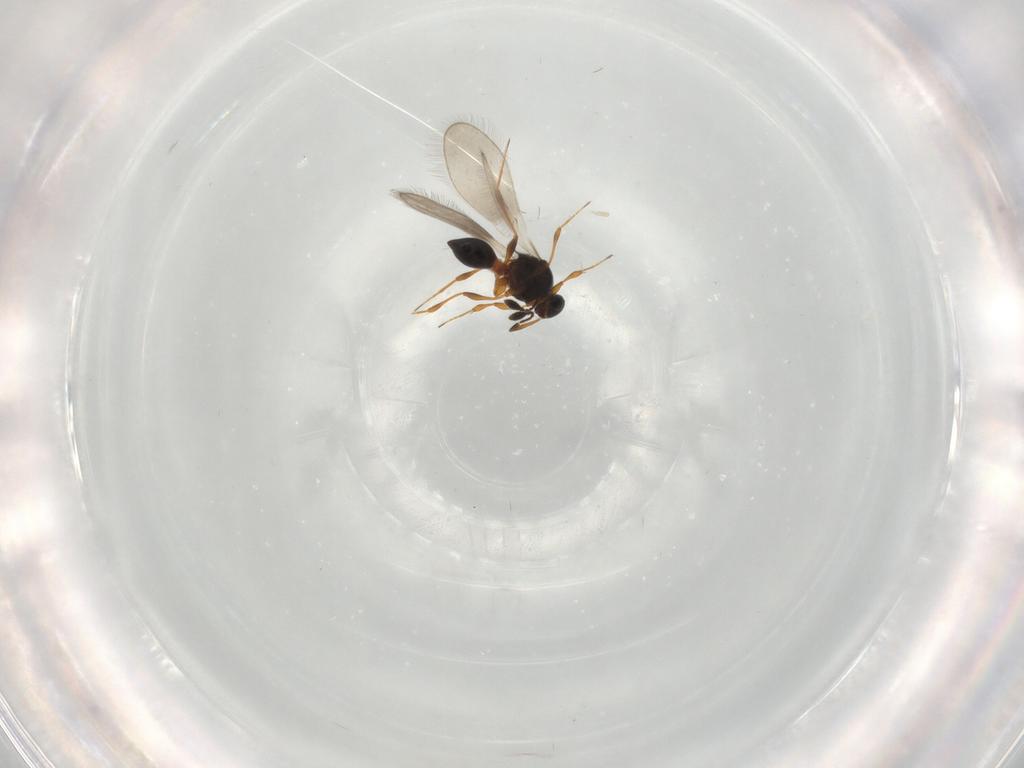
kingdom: Animalia
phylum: Arthropoda
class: Insecta
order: Hymenoptera
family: Platygastridae
